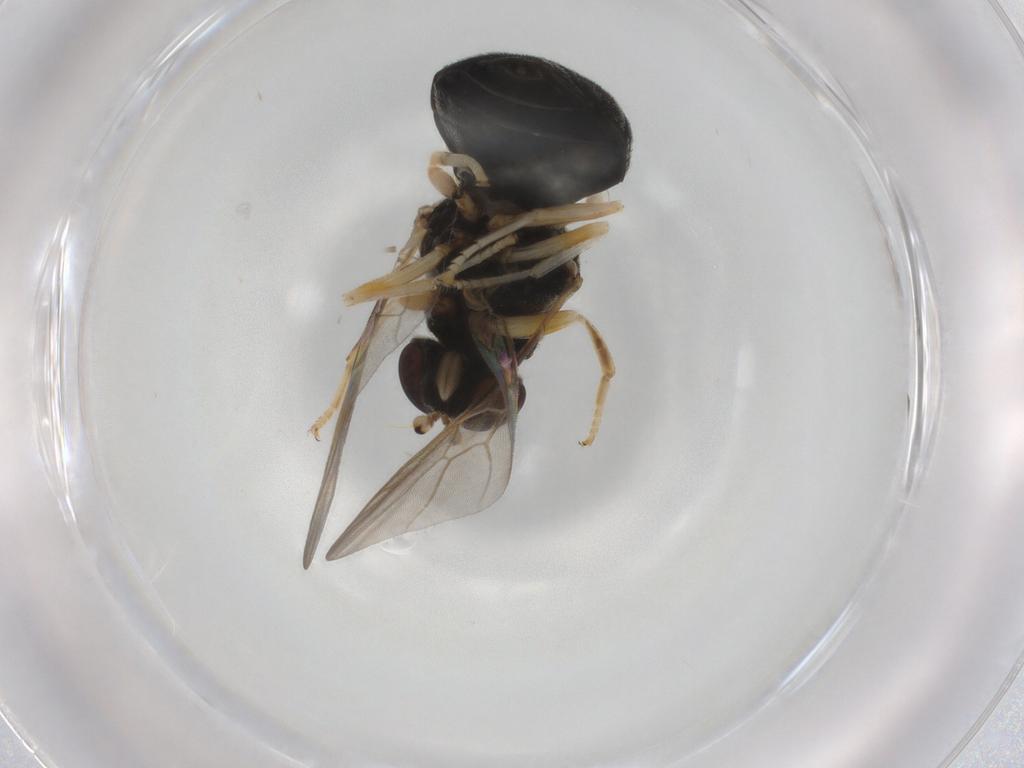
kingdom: Animalia
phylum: Arthropoda
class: Insecta
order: Diptera
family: Stratiomyidae
